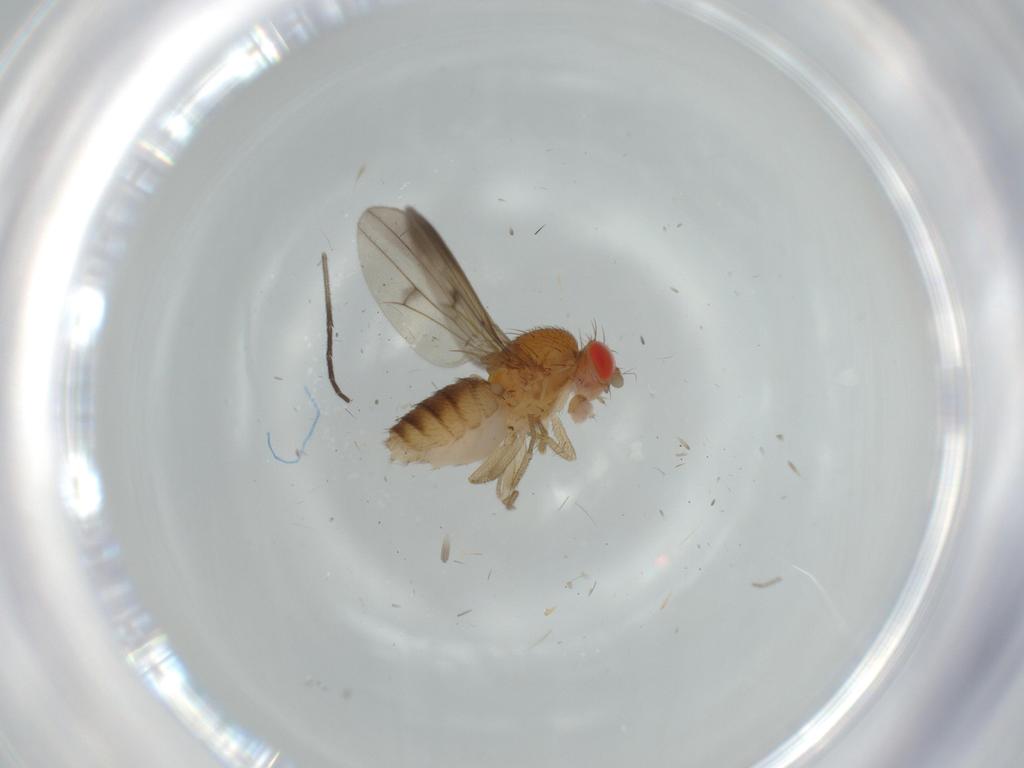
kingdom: Animalia
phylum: Arthropoda
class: Insecta
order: Diptera
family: Drosophilidae
